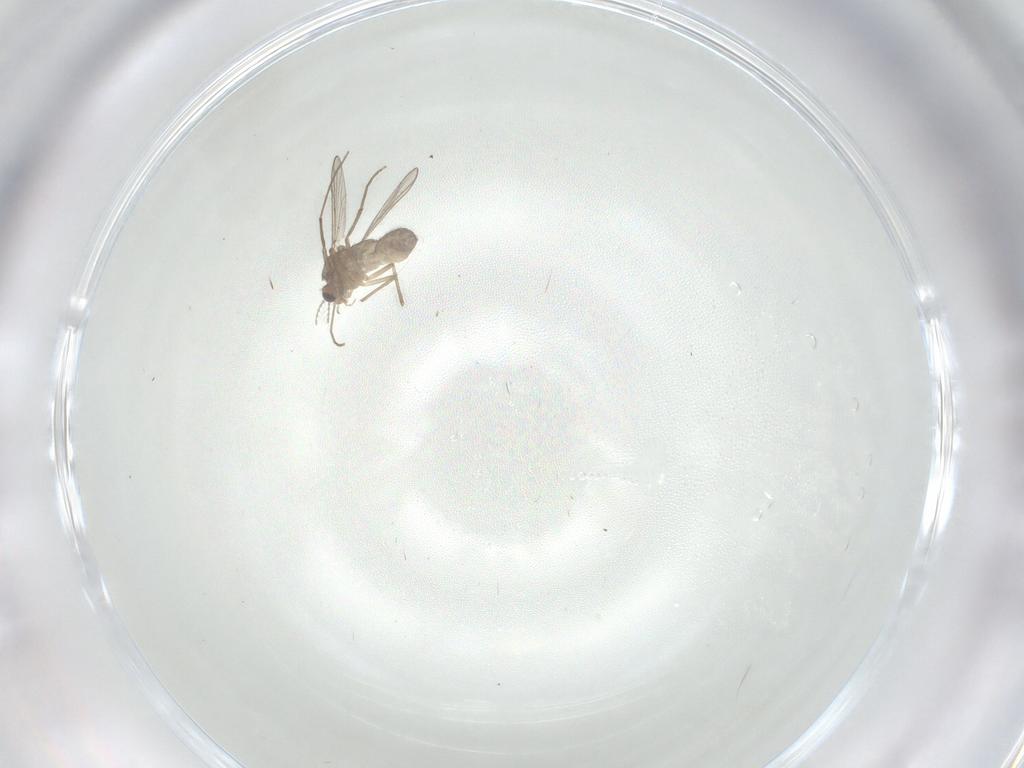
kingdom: Animalia
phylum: Arthropoda
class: Insecta
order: Diptera
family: Chironomidae
